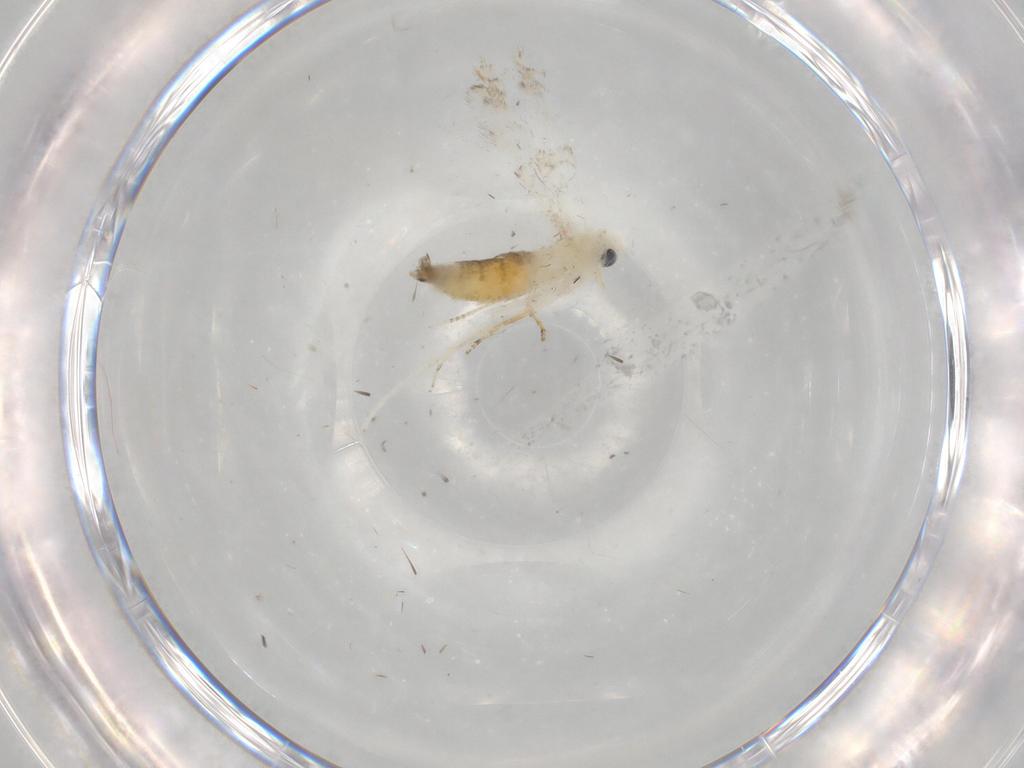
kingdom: Animalia
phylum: Arthropoda
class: Insecta
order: Lepidoptera
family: Gracillariidae
